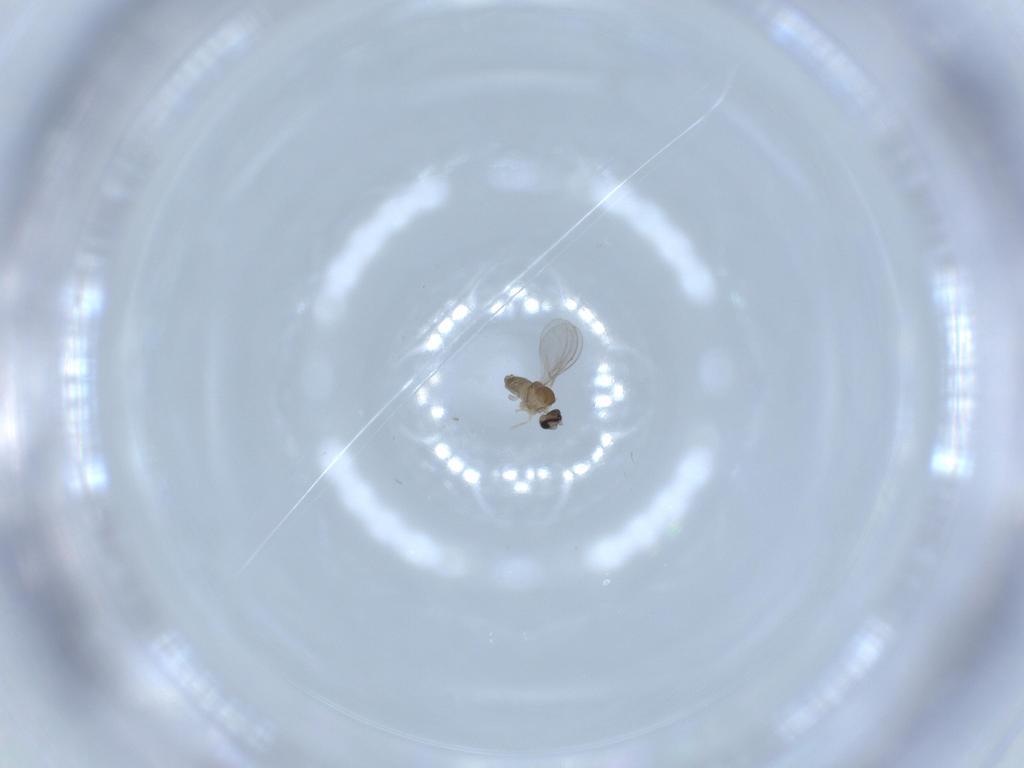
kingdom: Animalia
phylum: Arthropoda
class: Insecta
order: Diptera
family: Cecidomyiidae
